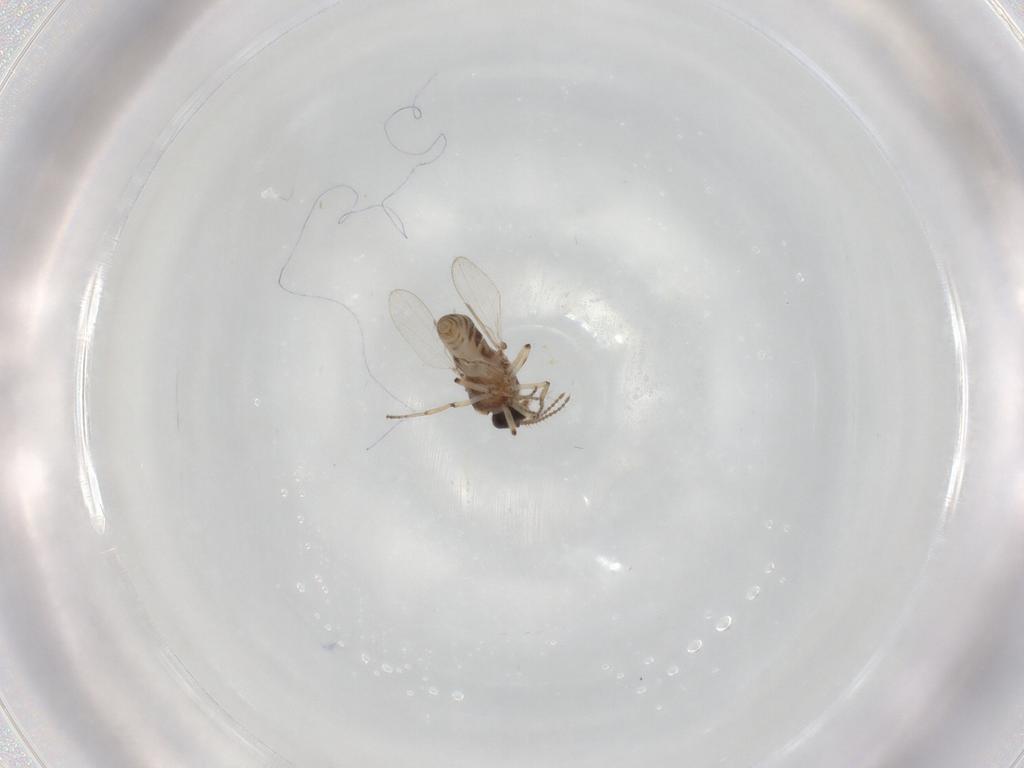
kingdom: Animalia
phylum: Arthropoda
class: Insecta
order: Diptera
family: Ceratopogonidae
